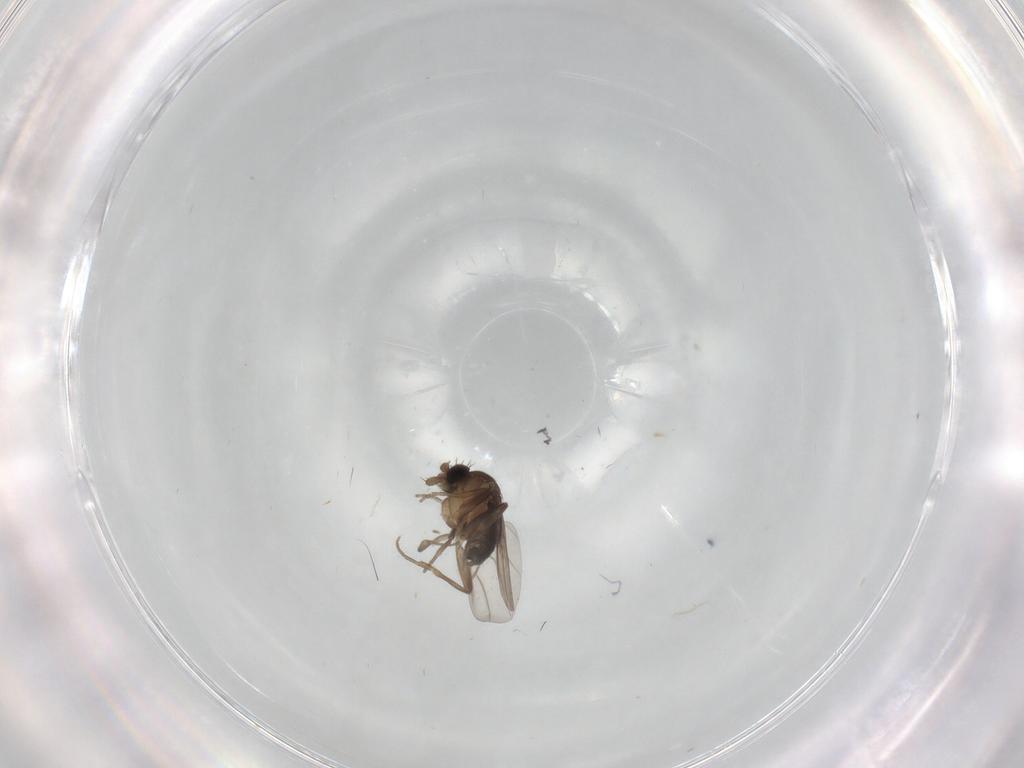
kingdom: Animalia
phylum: Arthropoda
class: Insecta
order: Diptera
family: Phoridae
